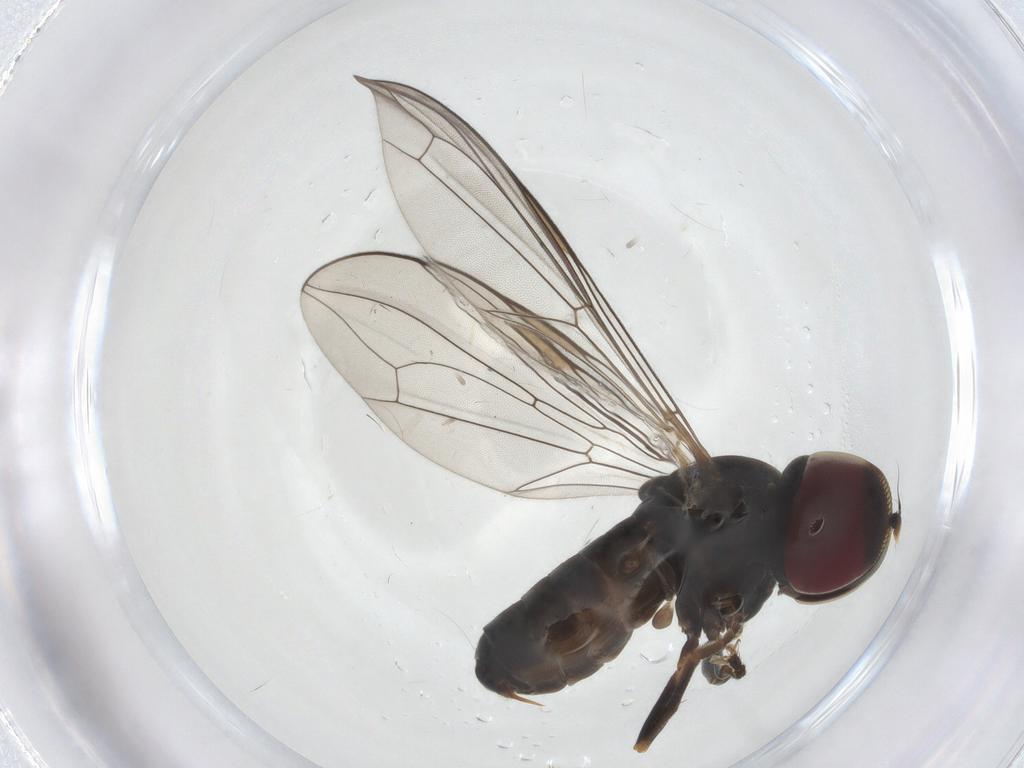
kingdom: Animalia
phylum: Arthropoda
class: Insecta
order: Diptera
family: Pipunculidae
